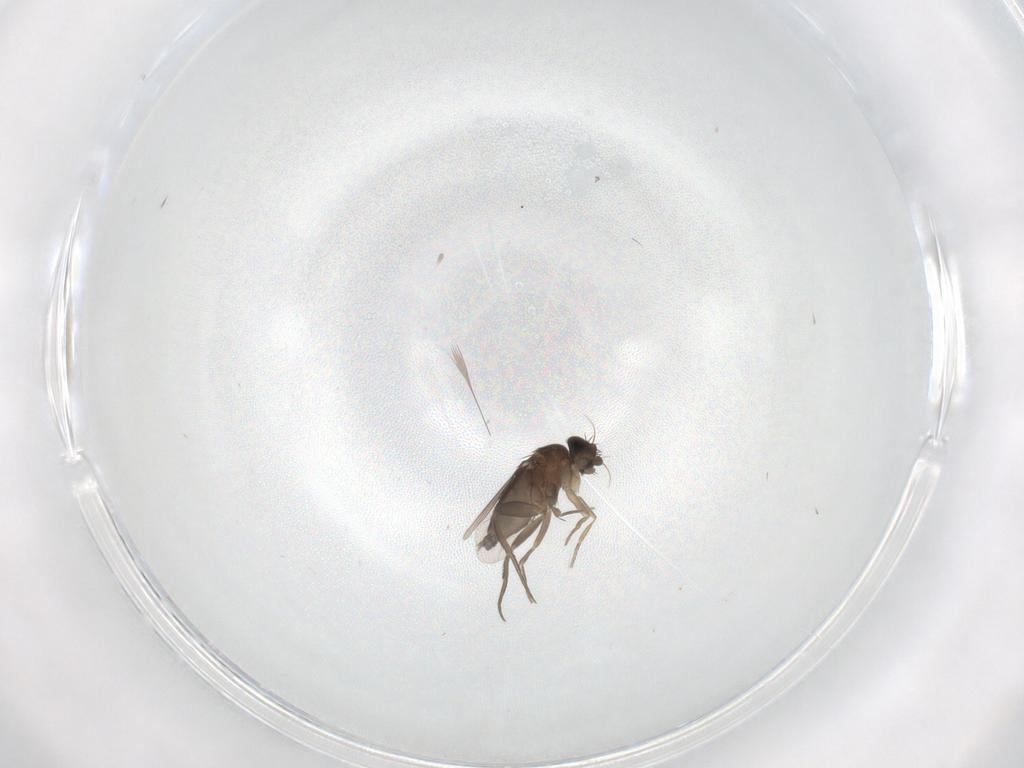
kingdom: Animalia
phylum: Arthropoda
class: Insecta
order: Diptera
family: Phoridae
